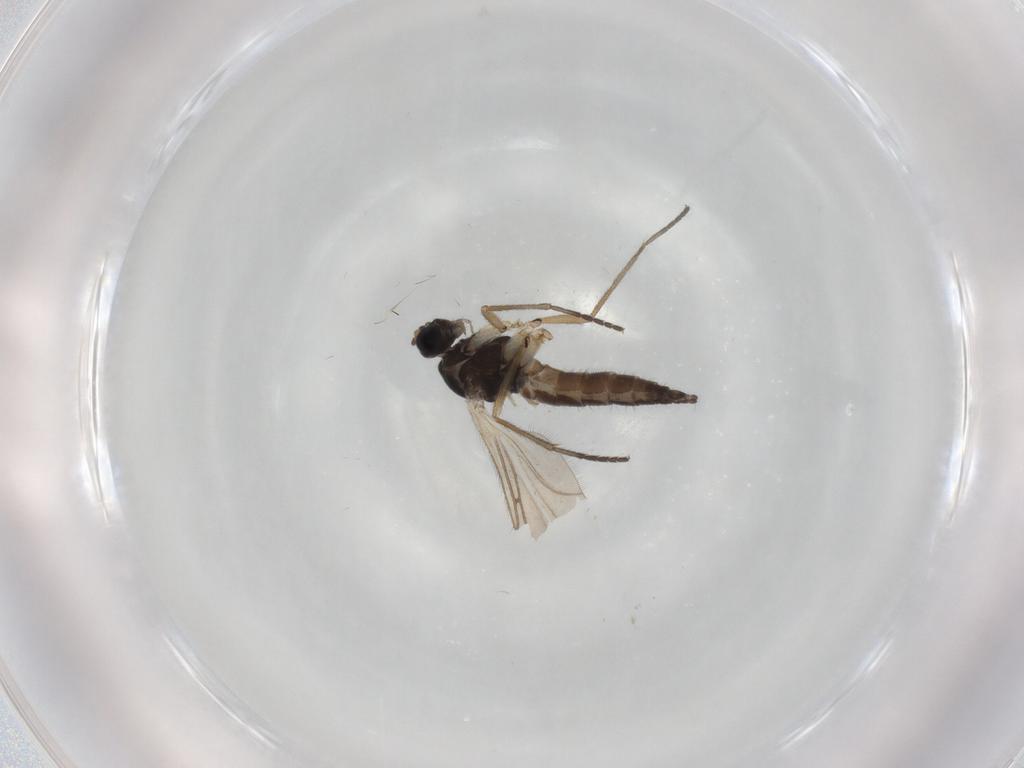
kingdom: Animalia
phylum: Arthropoda
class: Insecta
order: Diptera
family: Sciaridae
